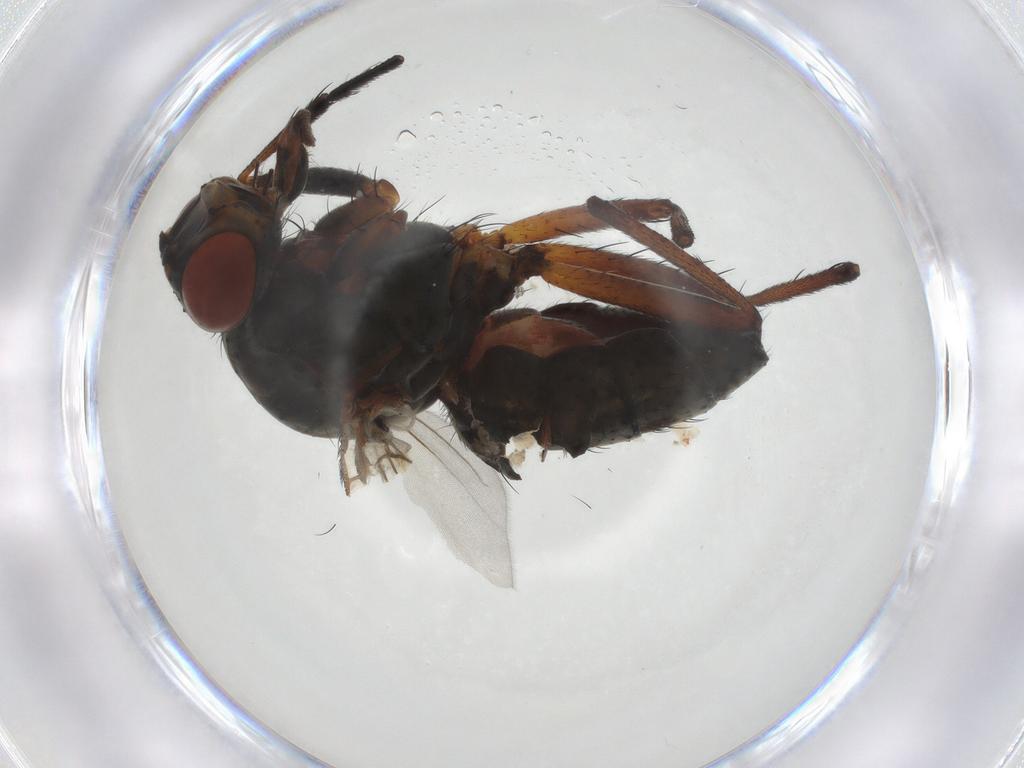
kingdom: Animalia
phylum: Arthropoda
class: Insecta
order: Diptera
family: Anthomyiidae
